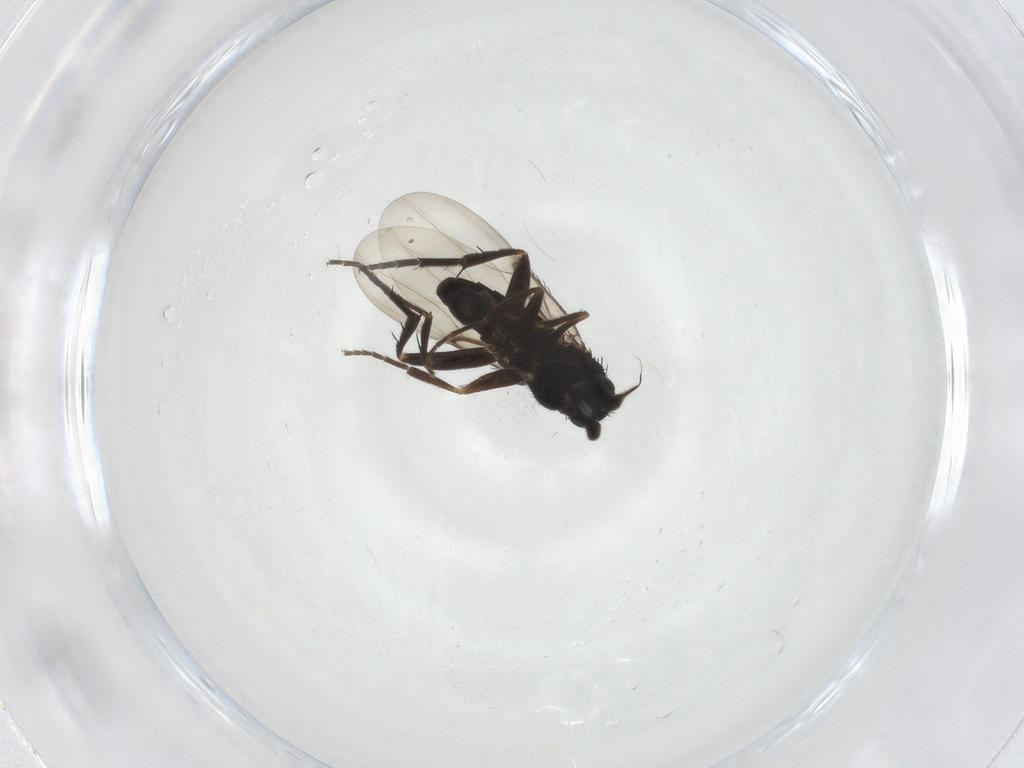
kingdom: Animalia
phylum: Arthropoda
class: Insecta
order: Diptera
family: Phoridae
